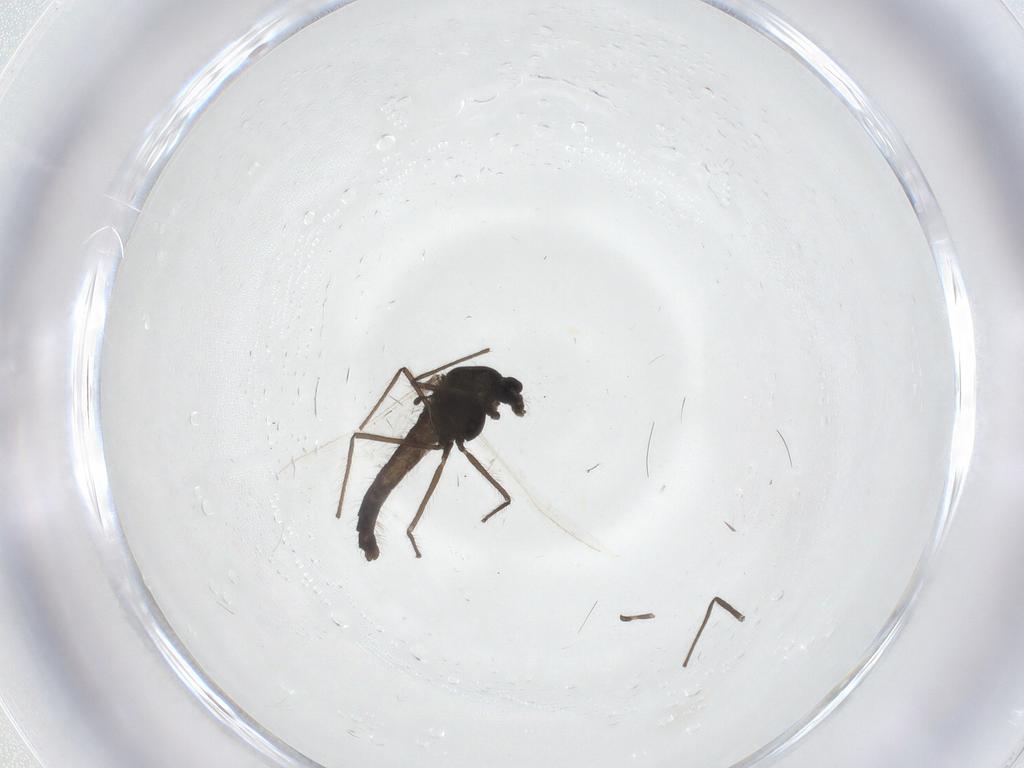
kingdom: Animalia
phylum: Arthropoda
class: Insecta
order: Diptera
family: Chironomidae
